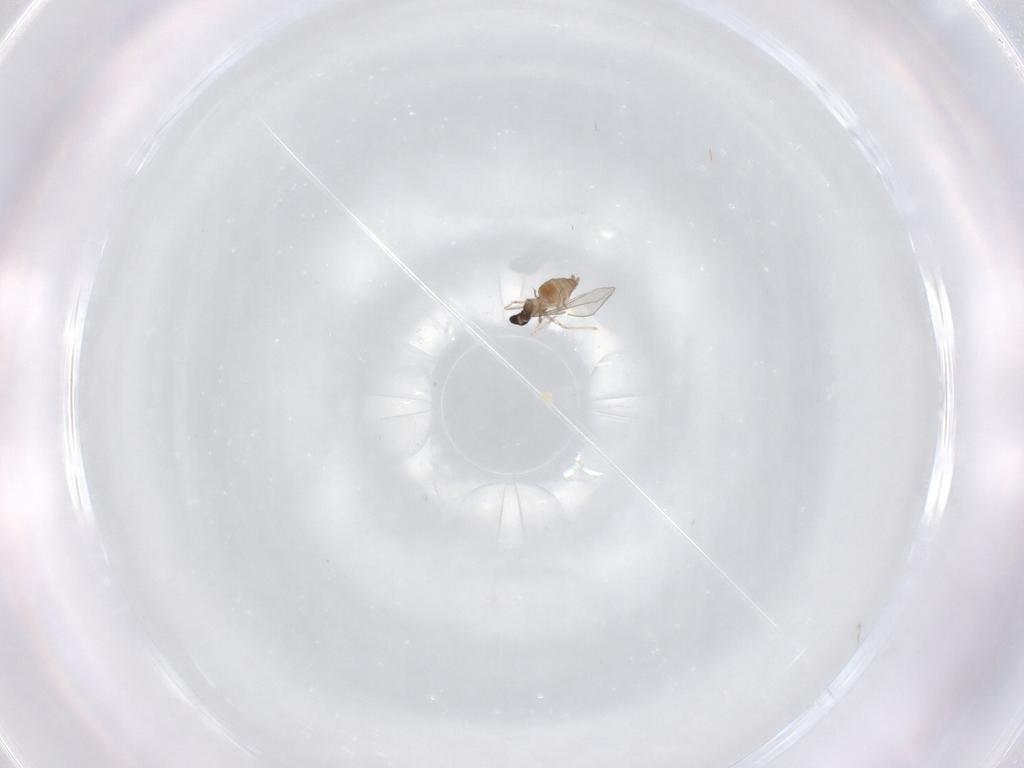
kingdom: Animalia
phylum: Arthropoda
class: Insecta
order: Diptera
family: Cecidomyiidae
